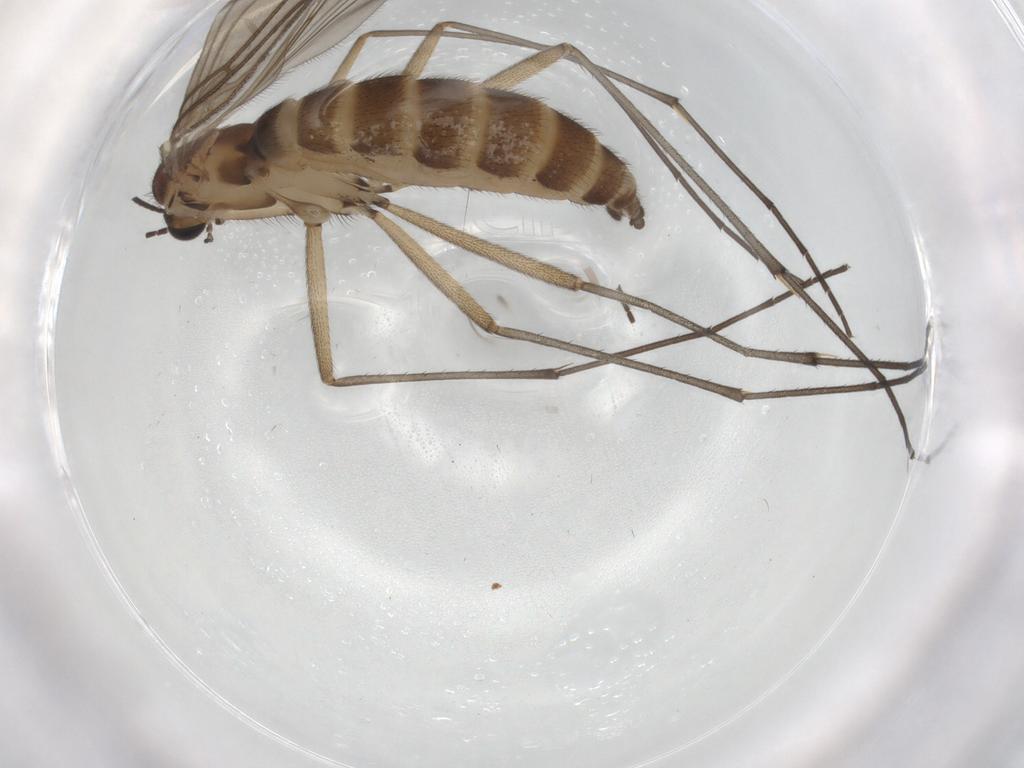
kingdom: Animalia
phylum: Arthropoda
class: Insecta
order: Diptera
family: Sciaridae
